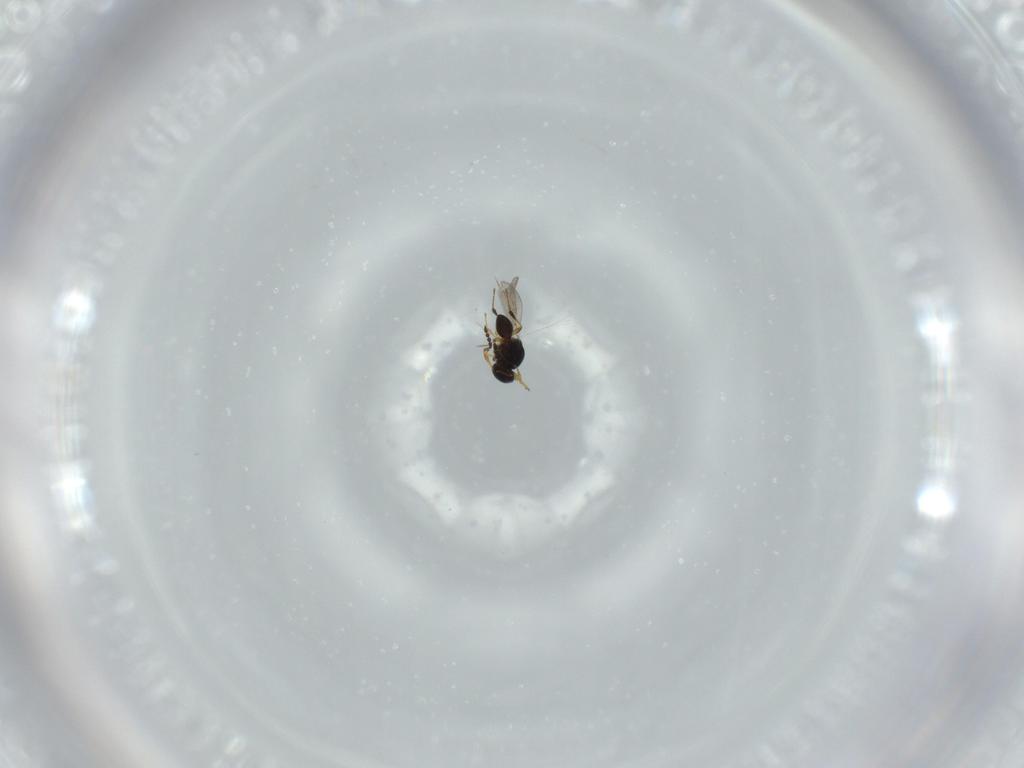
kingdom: Animalia
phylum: Arthropoda
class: Insecta
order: Hymenoptera
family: Platygastridae
